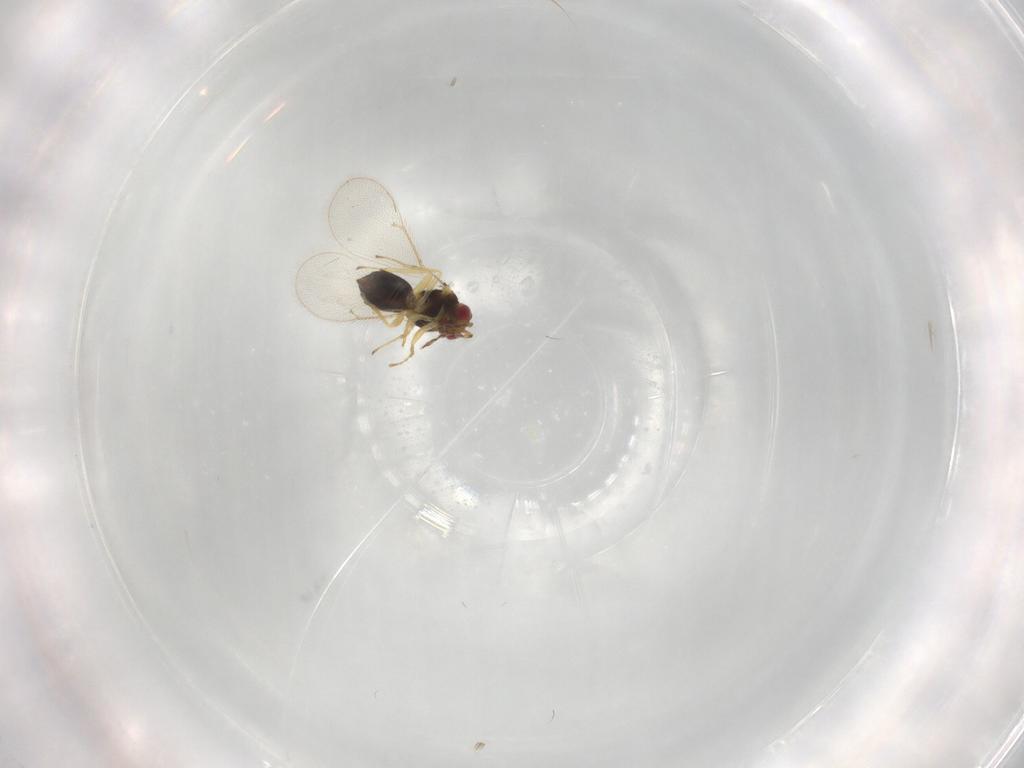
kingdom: Animalia
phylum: Arthropoda
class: Insecta
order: Hymenoptera
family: Eulophidae
